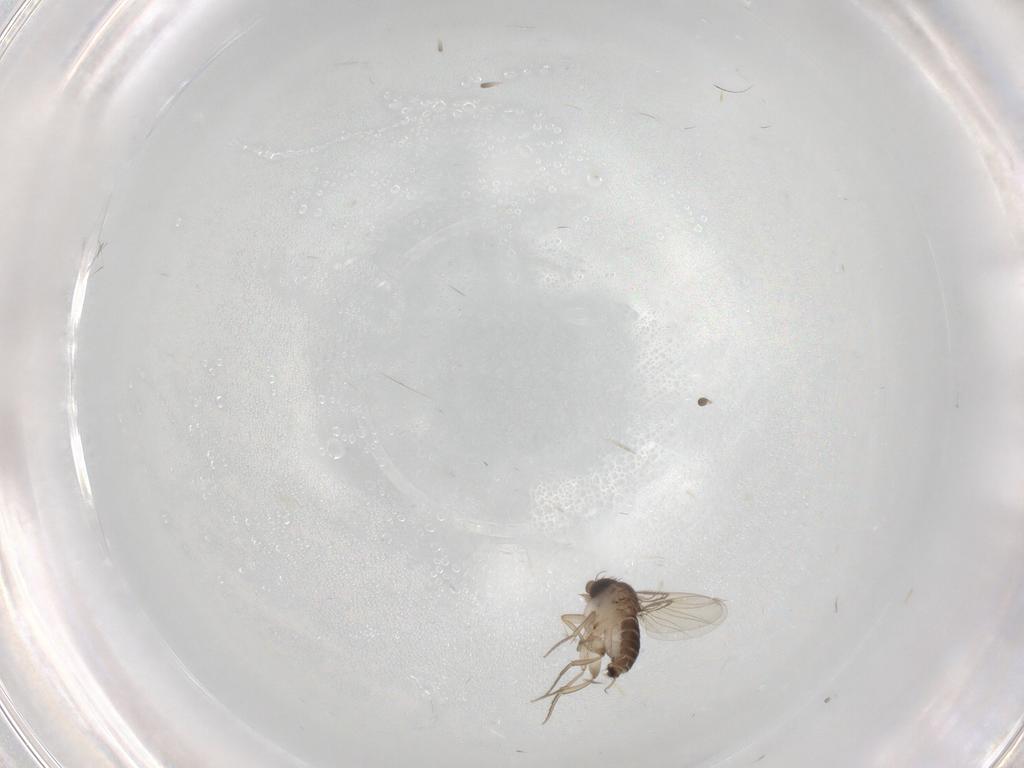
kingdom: Animalia
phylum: Arthropoda
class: Insecta
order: Diptera
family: Phoridae
